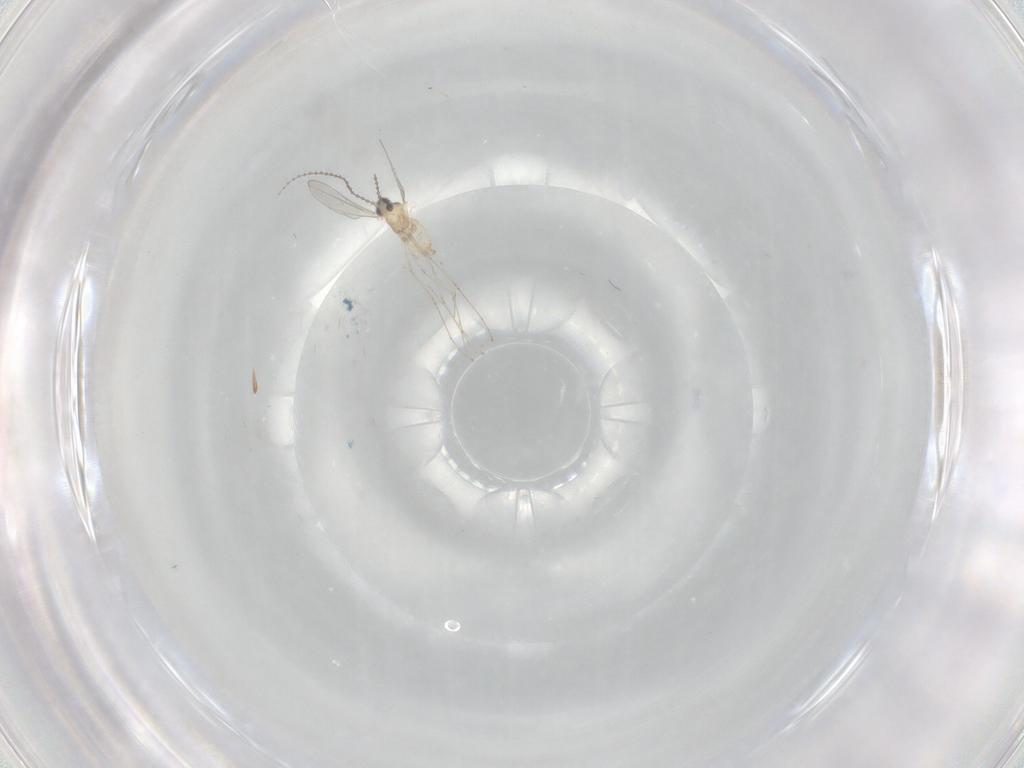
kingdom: Animalia
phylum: Arthropoda
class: Insecta
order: Diptera
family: Cecidomyiidae
